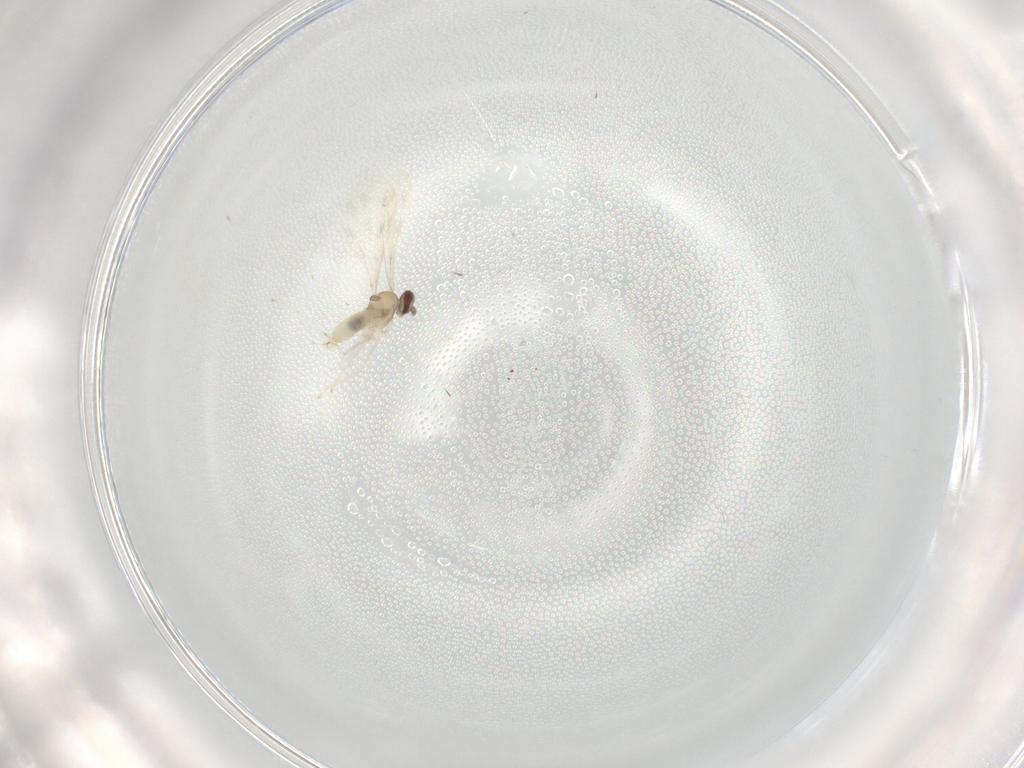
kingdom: Animalia
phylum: Arthropoda
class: Insecta
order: Diptera
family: Cecidomyiidae
